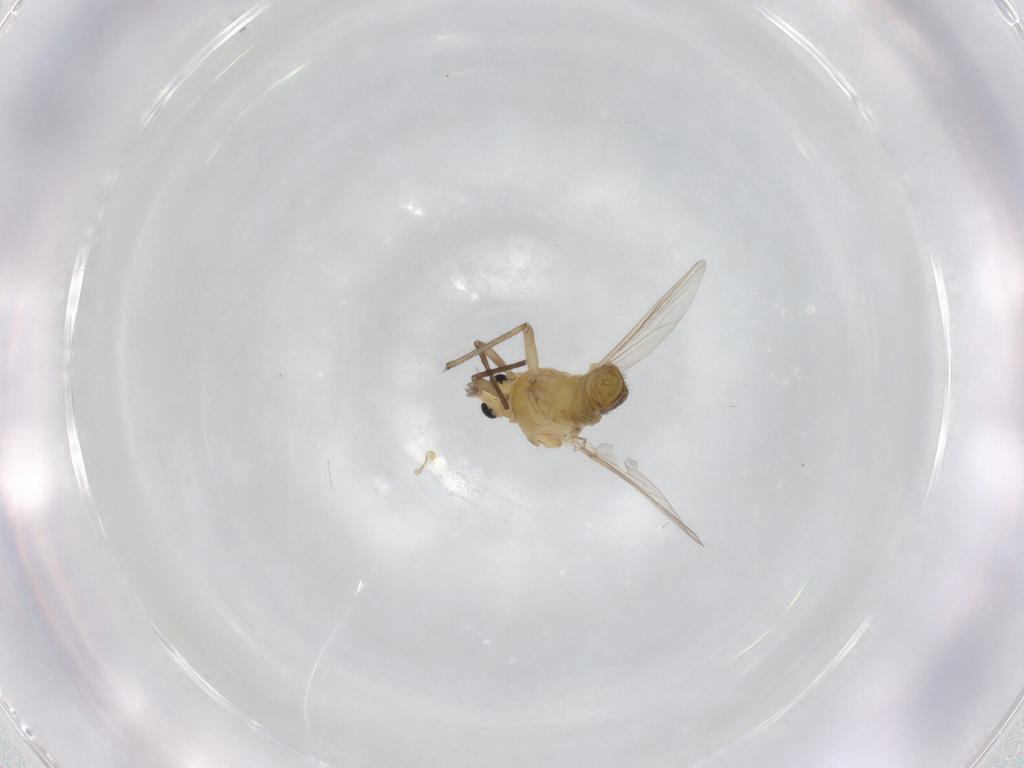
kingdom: Animalia
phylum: Arthropoda
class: Insecta
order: Diptera
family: Chironomidae
